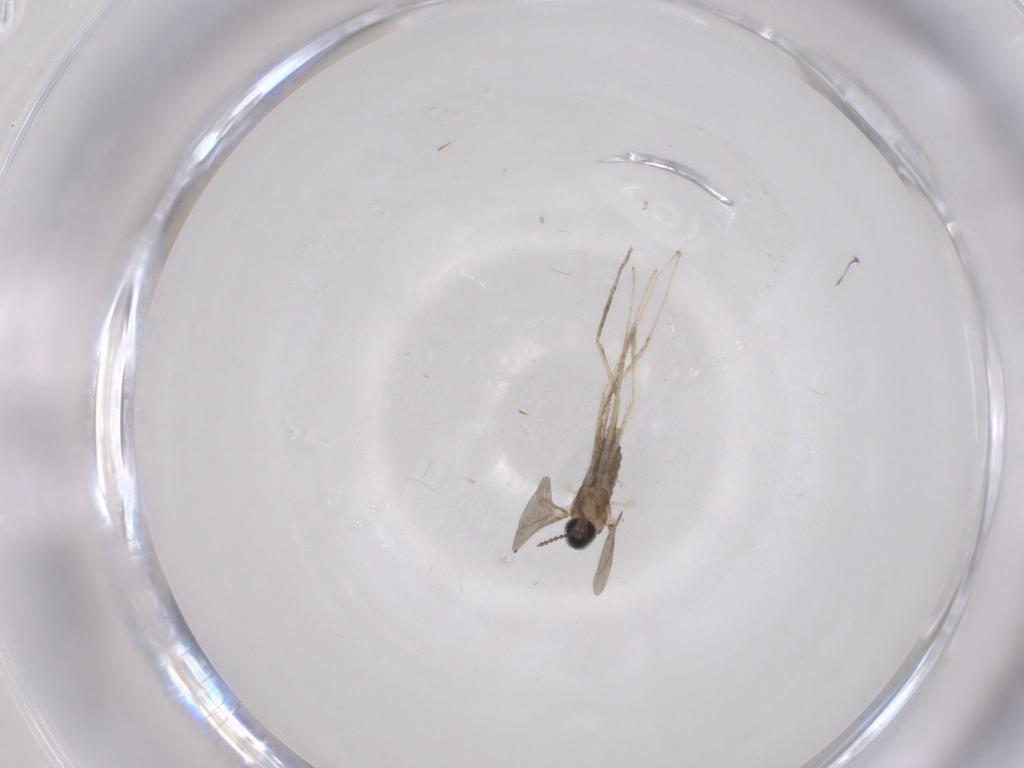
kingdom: Animalia
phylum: Arthropoda
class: Insecta
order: Diptera
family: Cecidomyiidae
